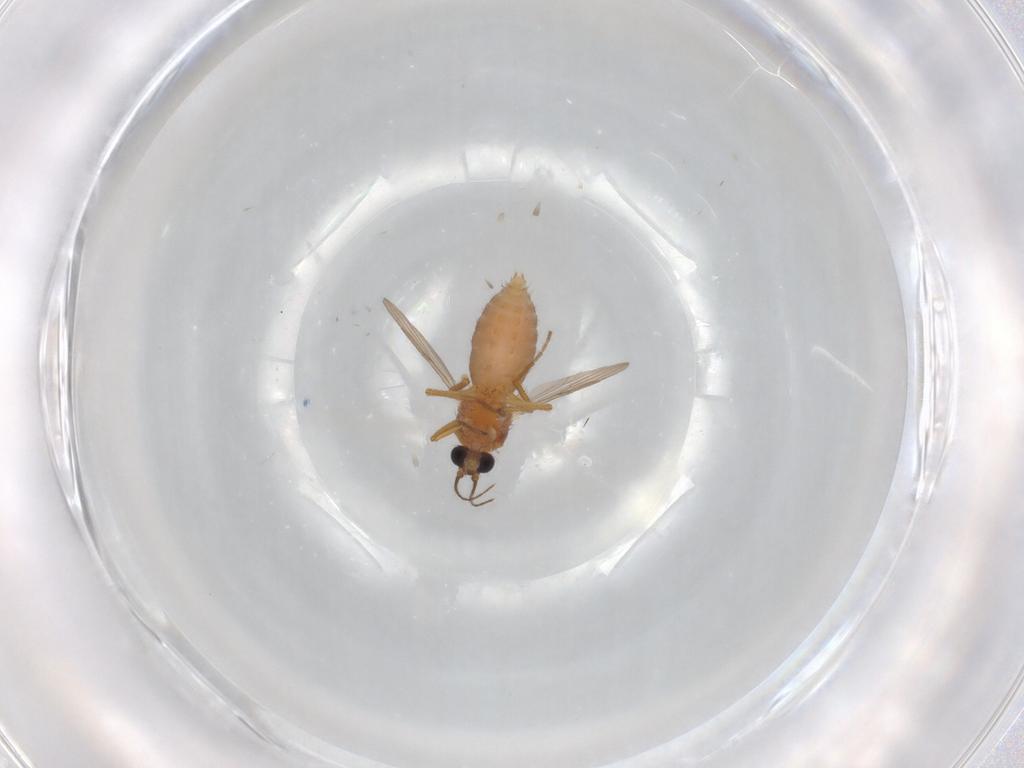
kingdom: Animalia
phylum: Arthropoda
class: Insecta
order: Diptera
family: Ceratopogonidae
